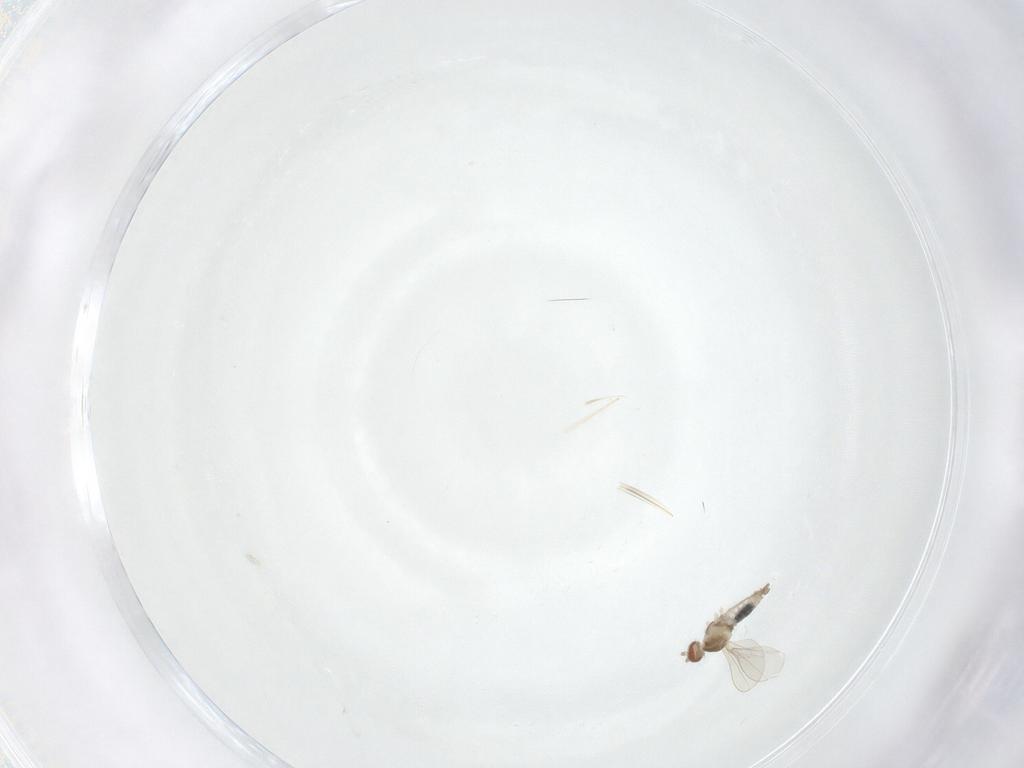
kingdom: Animalia
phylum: Arthropoda
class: Insecta
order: Diptera
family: Cecidomyiidae
